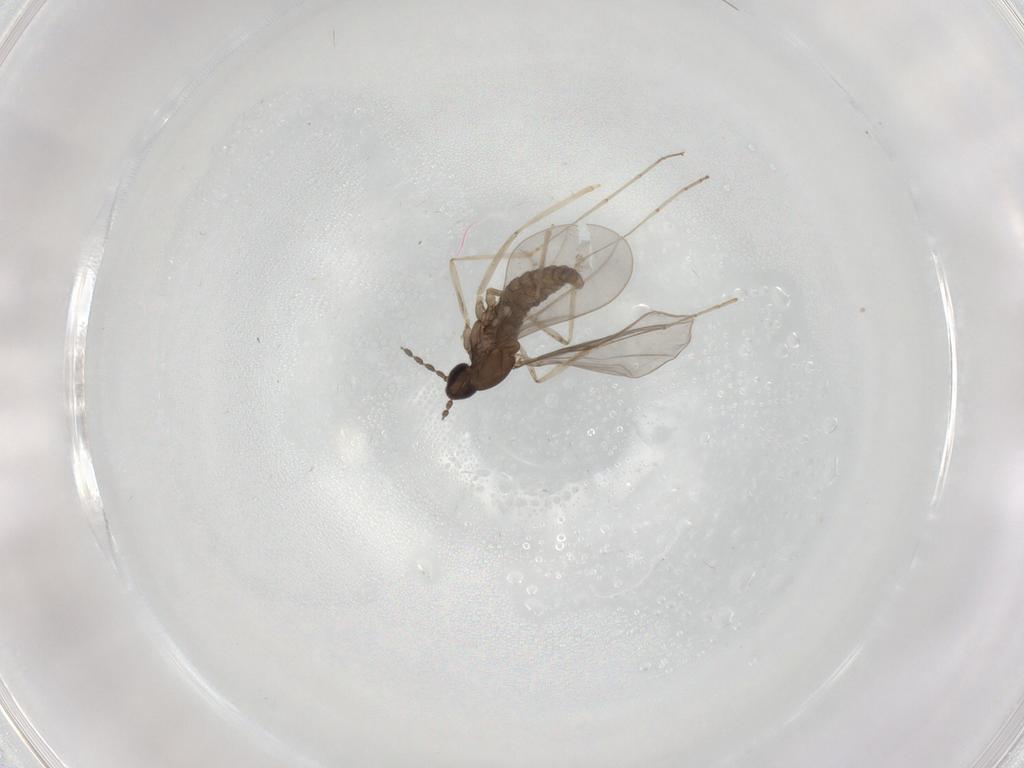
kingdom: Animalia
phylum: Arthropoda
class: Insecta
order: Diptera
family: Cecidomyiidae
